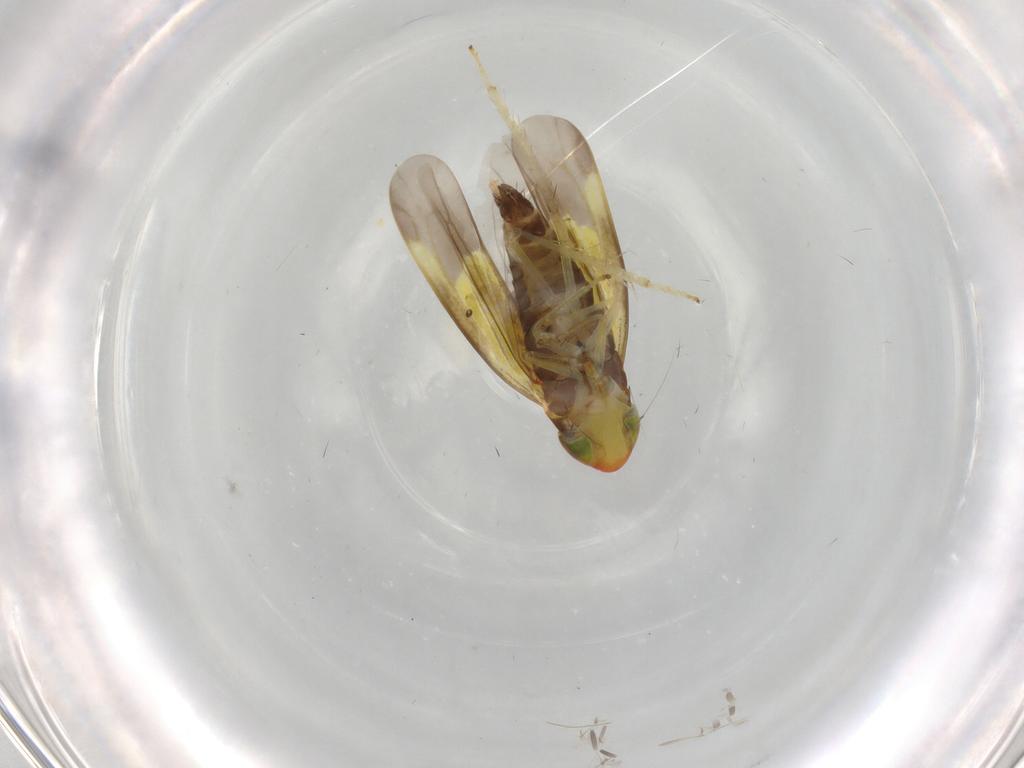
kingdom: Animalia
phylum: Arthropoda
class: Insecta
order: Hemiptera
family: Cicadellidae
